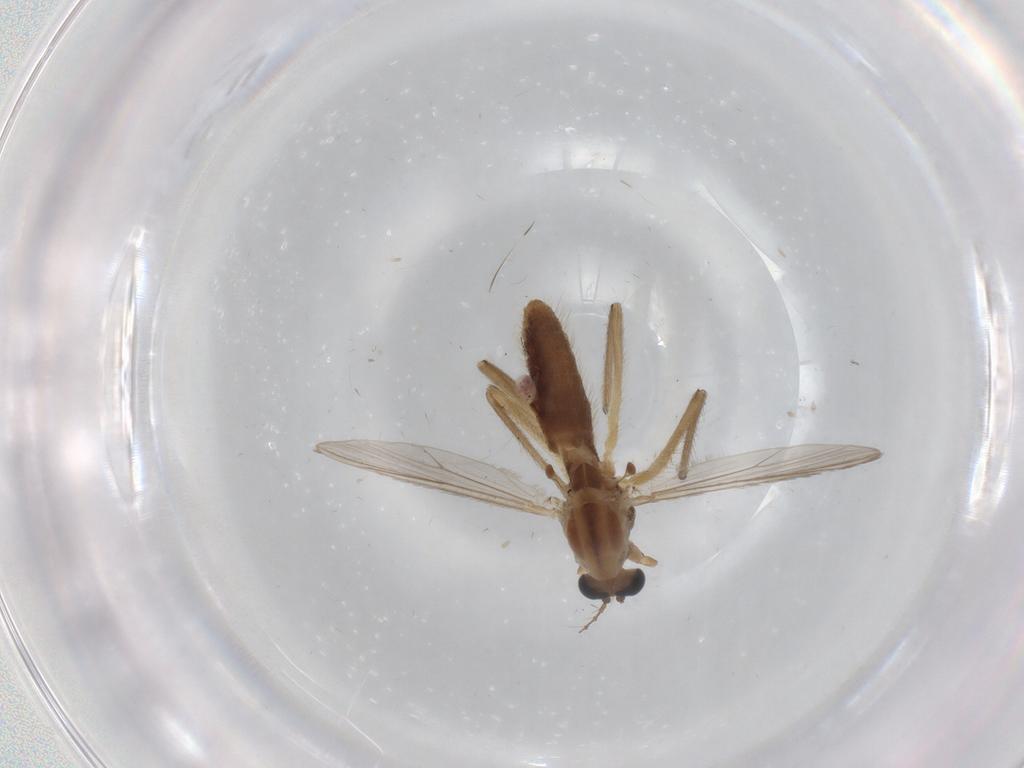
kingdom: Animalia
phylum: Arthropoda
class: Insecta
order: Diptera
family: Chironomidae
